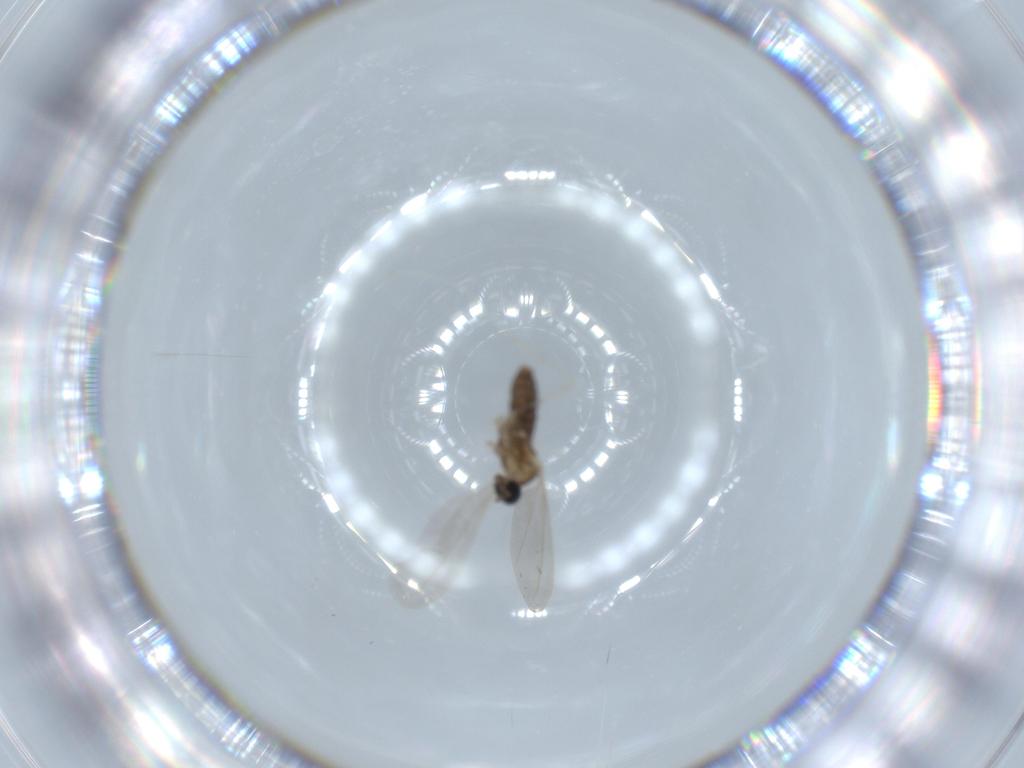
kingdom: Animalia
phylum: Arthropoda
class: Insecta
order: Diptera
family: Cecidomyiidae
